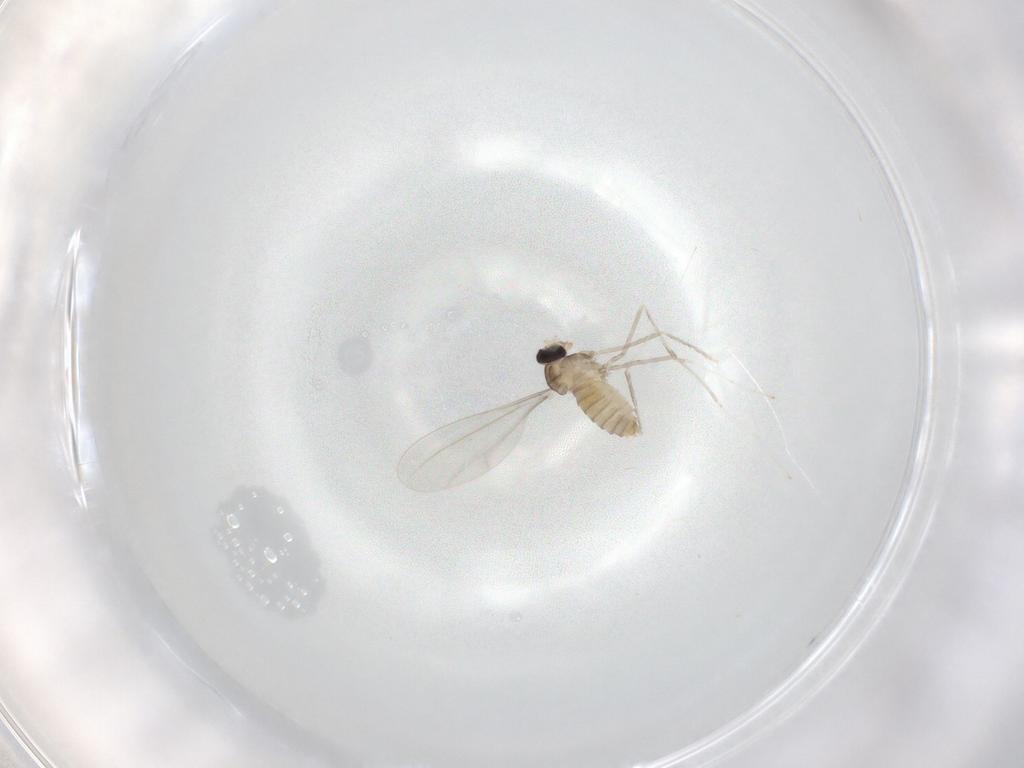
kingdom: Animalia
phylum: Arthropoda
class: Insecta
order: Diptera
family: Cecidomyiidae
